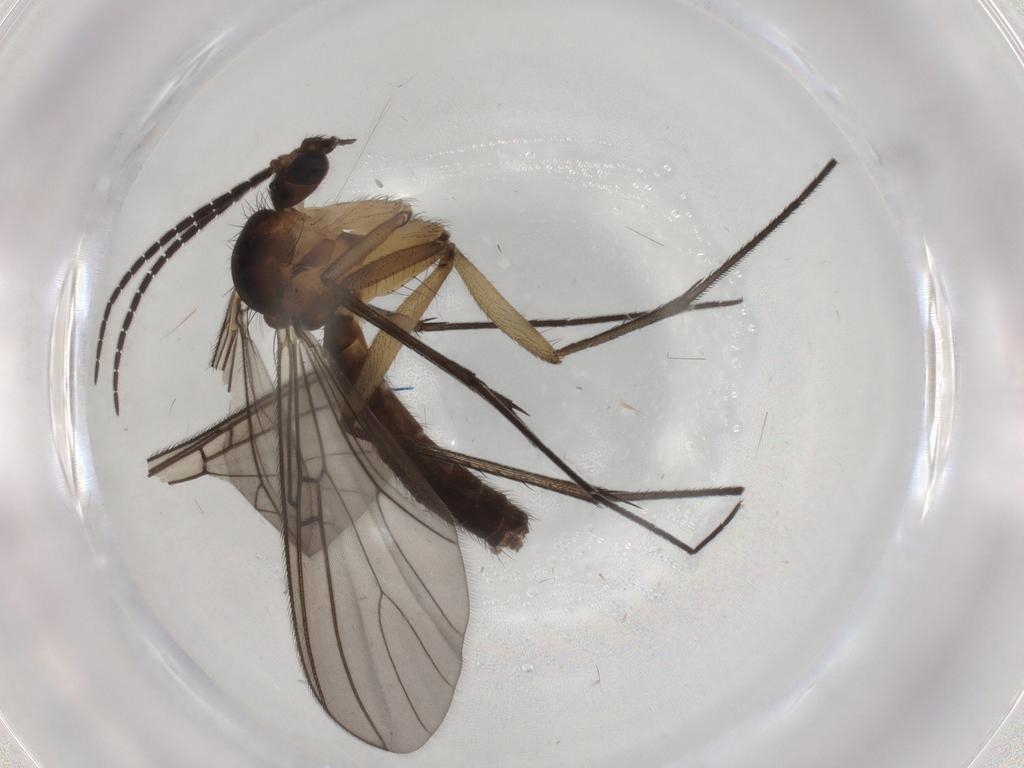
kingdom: Animalia
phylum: Arthropoda
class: Insecta
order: Diptera
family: Mycetophilidae
